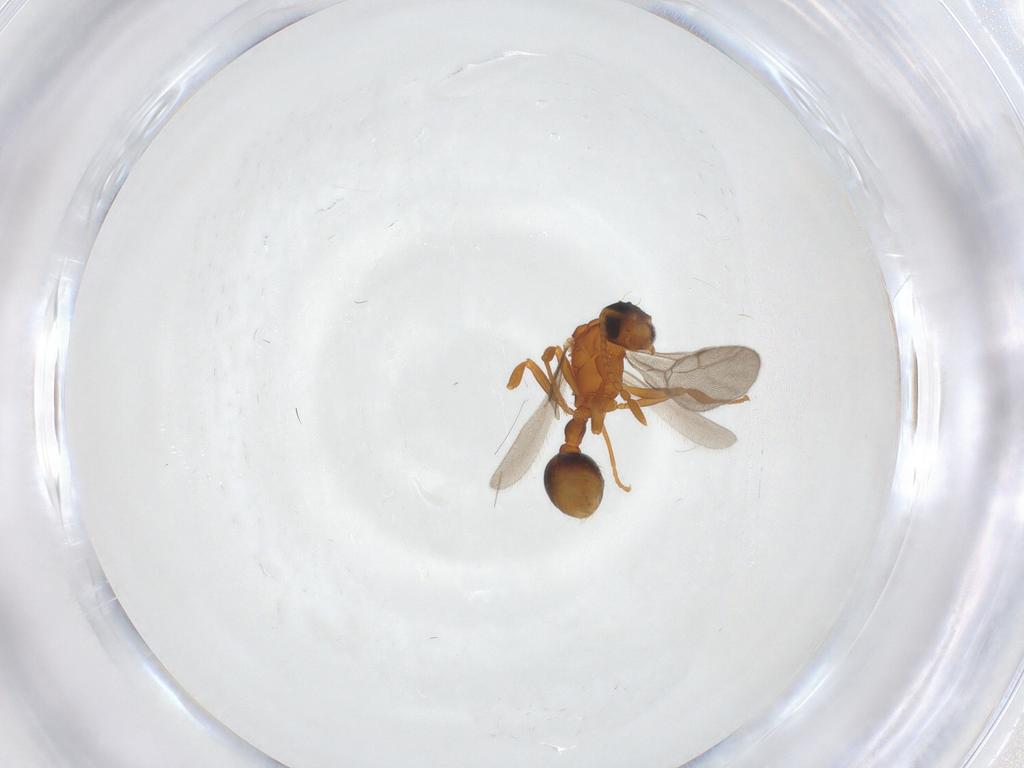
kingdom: Animalia
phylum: Arthropoda
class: Insecta
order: Hymenoptera
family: Formicidae
